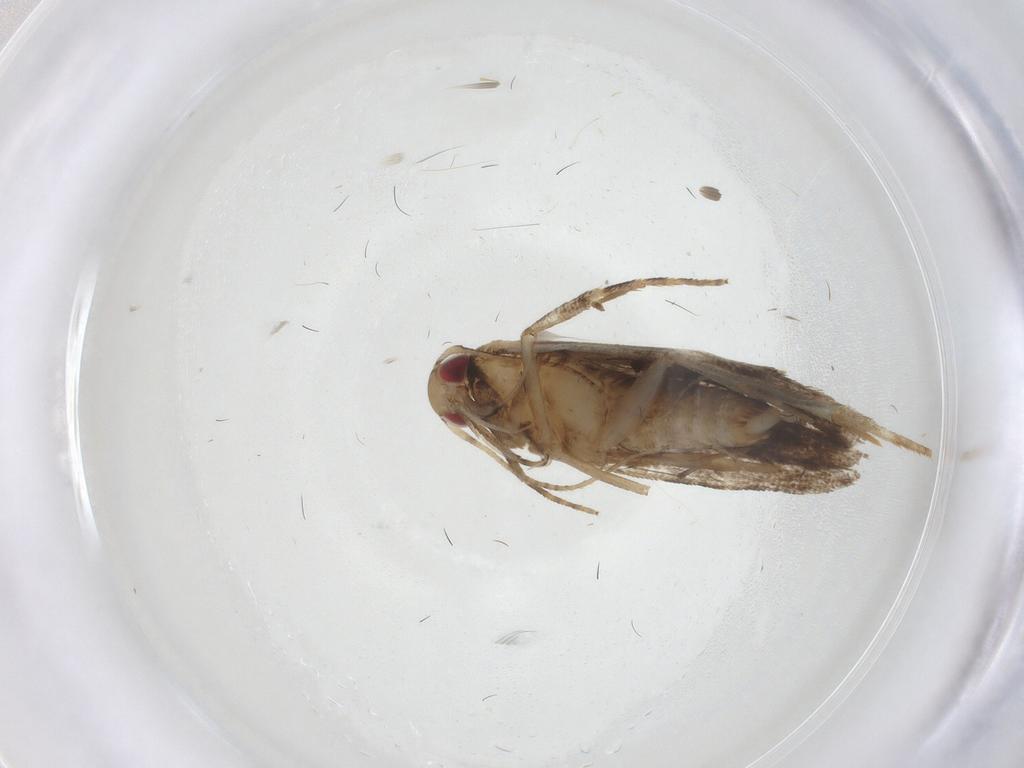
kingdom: Animalia
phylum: Arthropoda
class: Insecta
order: Lepidoptera
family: Gelechiidae
